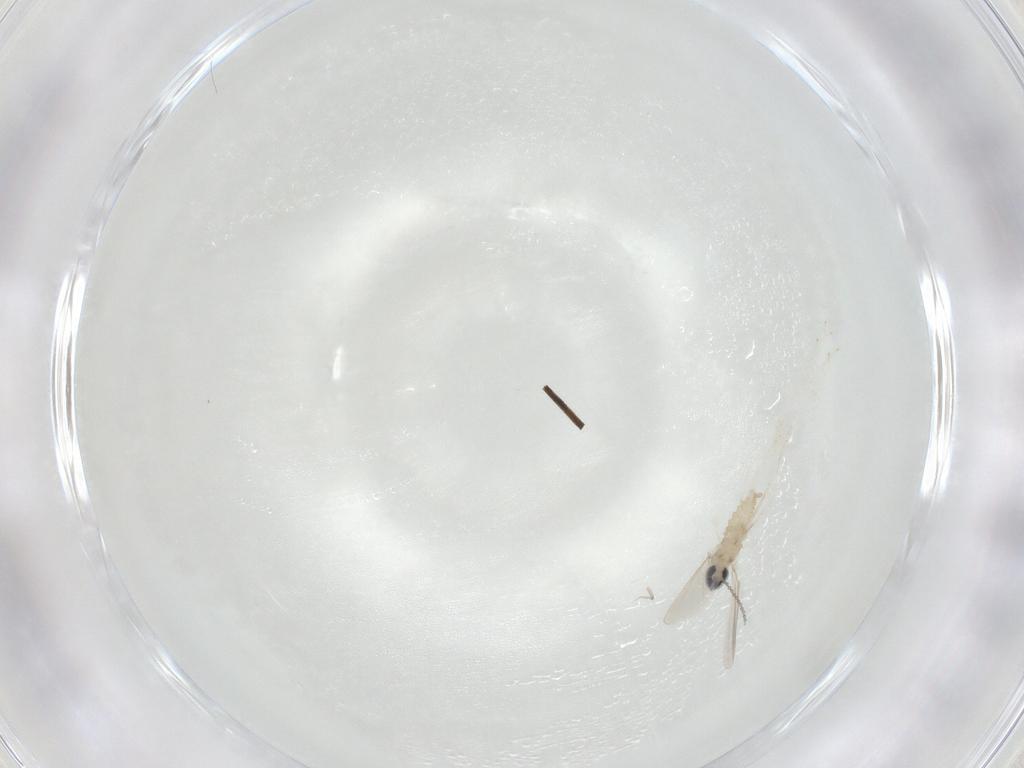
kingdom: Animalia
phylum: Arthropoda
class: Insecta
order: Diptera
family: Cecidomyiidae
